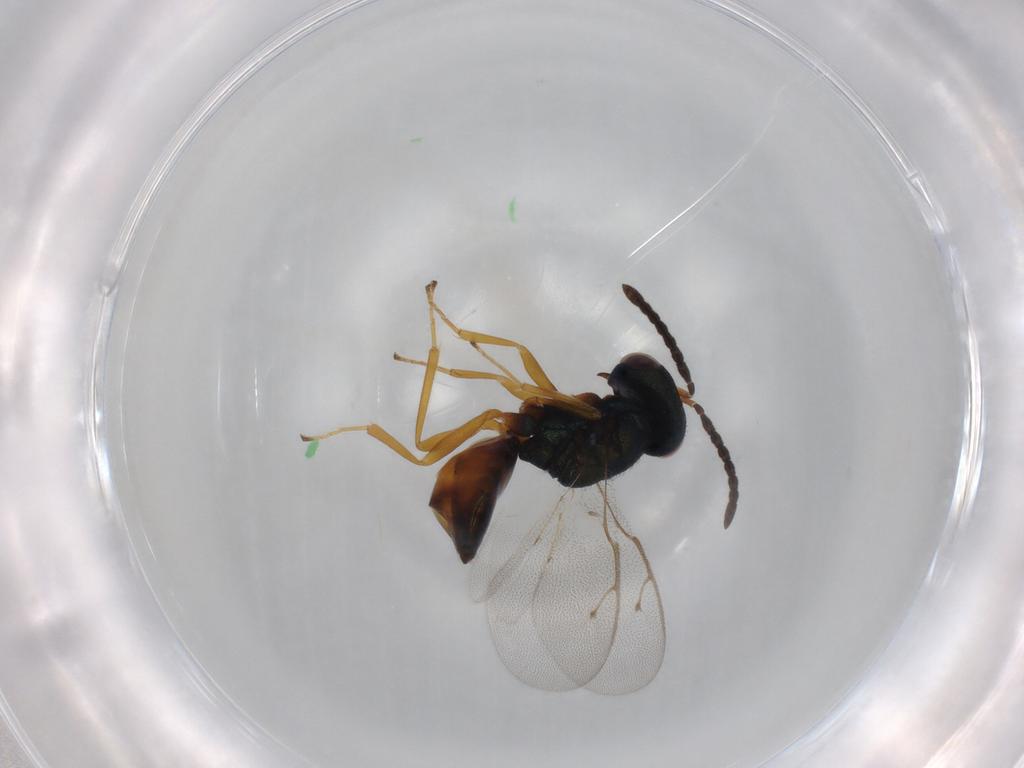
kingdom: Animalia
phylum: Arthropoda
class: Insecta
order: Hymenoptera
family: Pteromalidae
